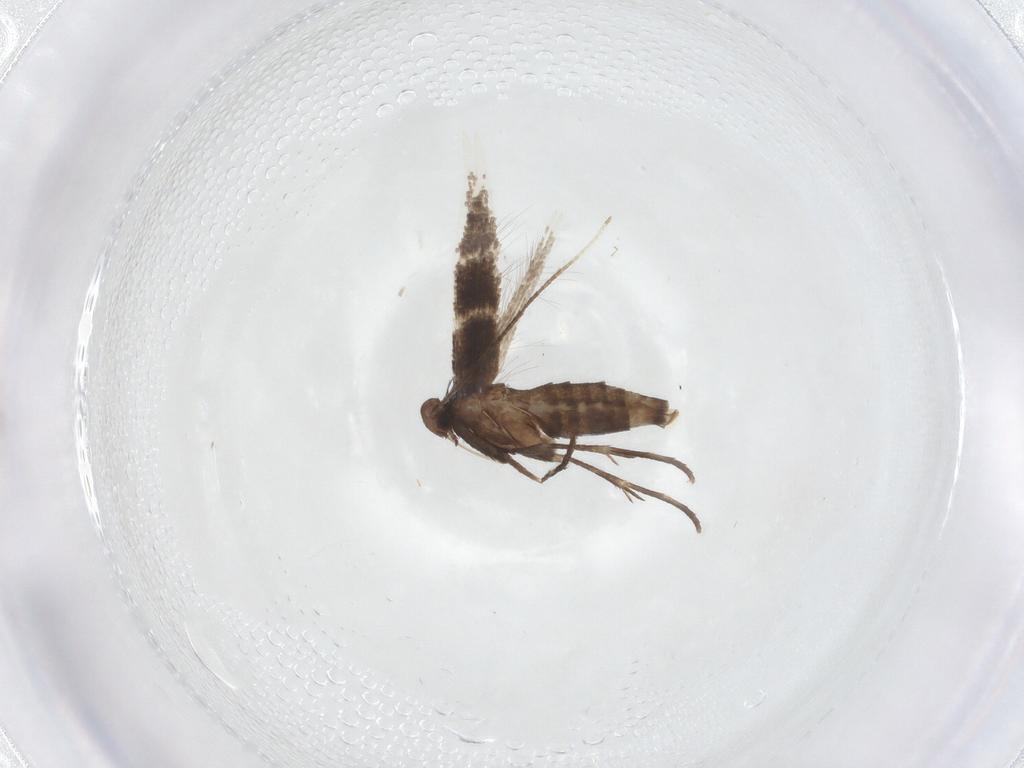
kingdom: Animalia
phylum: Arthropoda
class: Insecta
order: Lepidoptera
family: Gracillariidae
